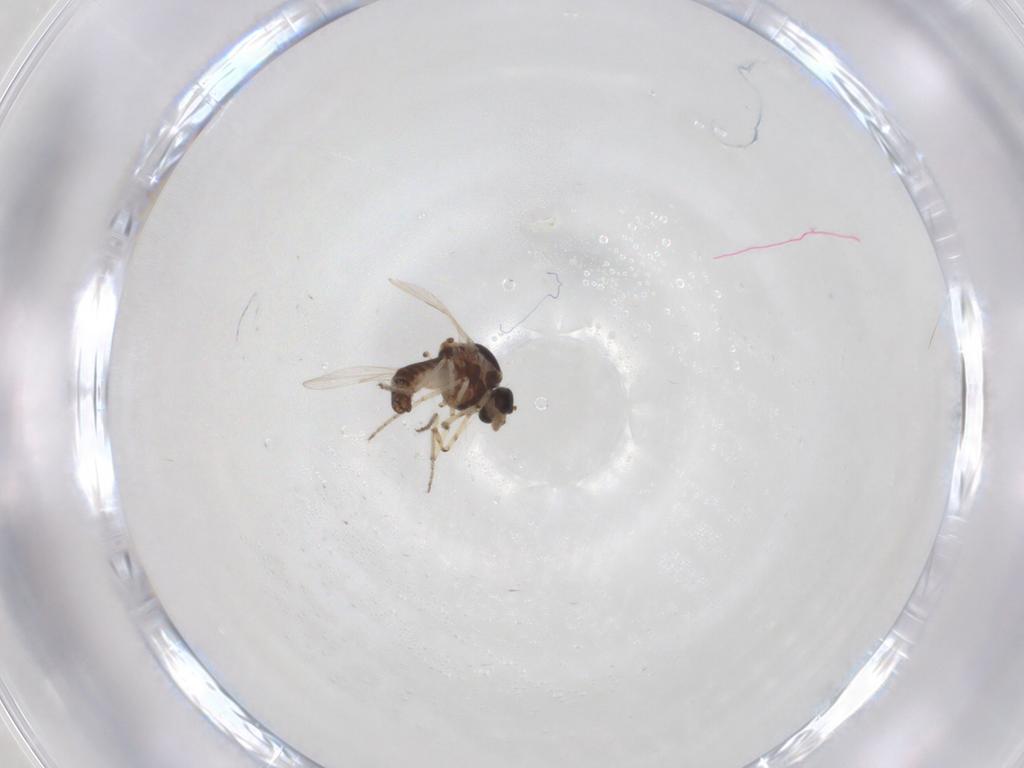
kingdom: Animalia
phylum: Arthropoda
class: Insecta
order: Diptera
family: Ceratopogonidae
